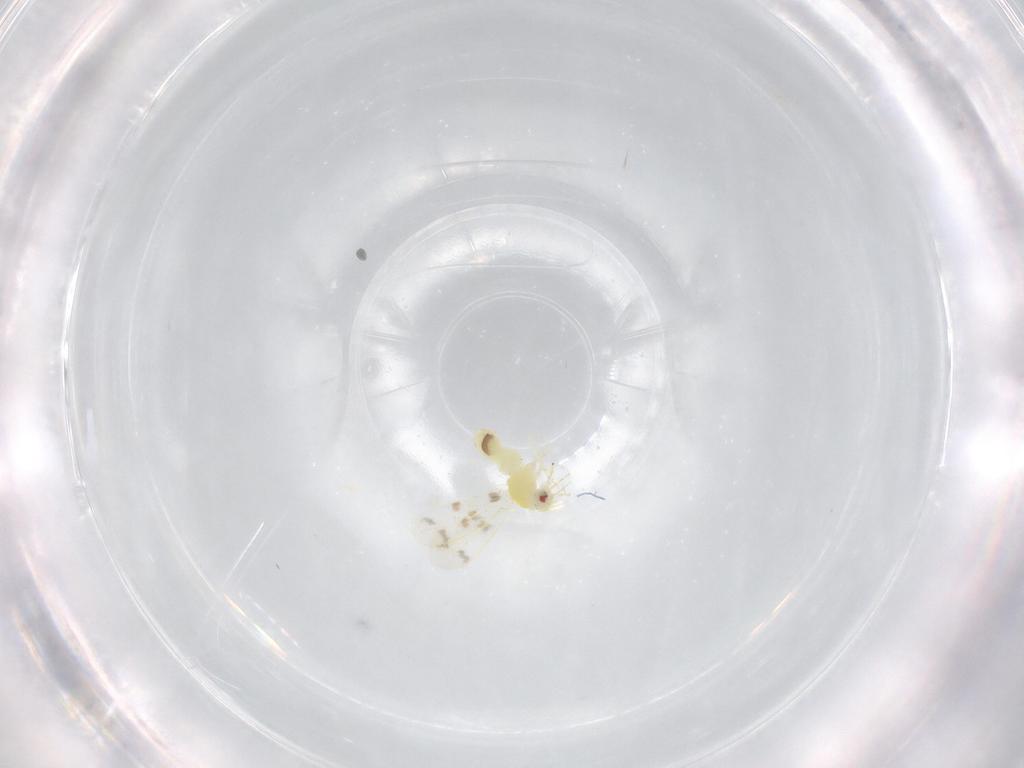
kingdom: Animalia
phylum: Arthropoda
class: Insecta
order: Hemiptera
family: Aleyrodidae
